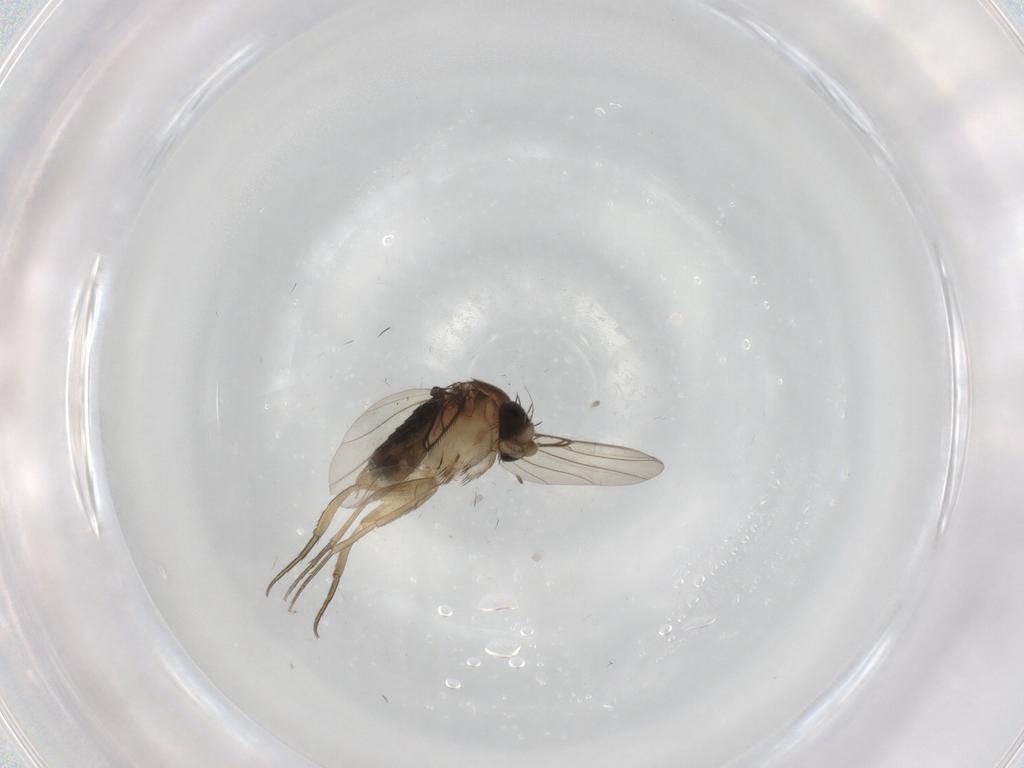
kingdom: Animalia
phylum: Arthropoda
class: Insecta
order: Diptera
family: Phoridae
